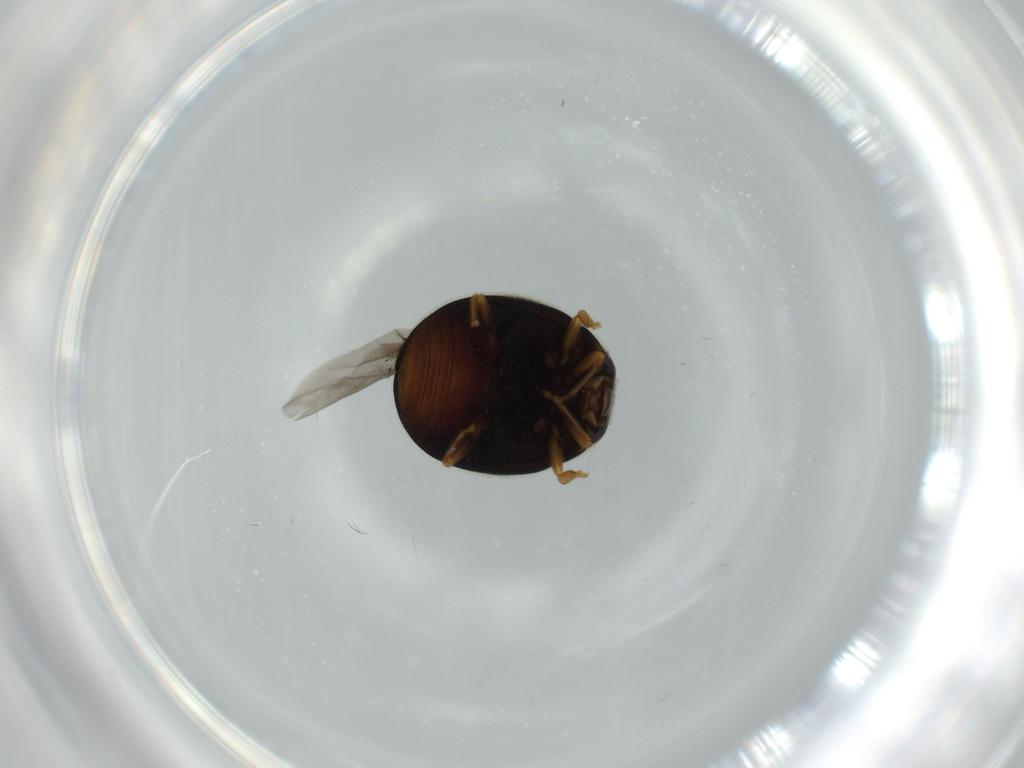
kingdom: Animalia
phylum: Arthropoda
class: Insecta
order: Coleoptera
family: Coccinellidae
